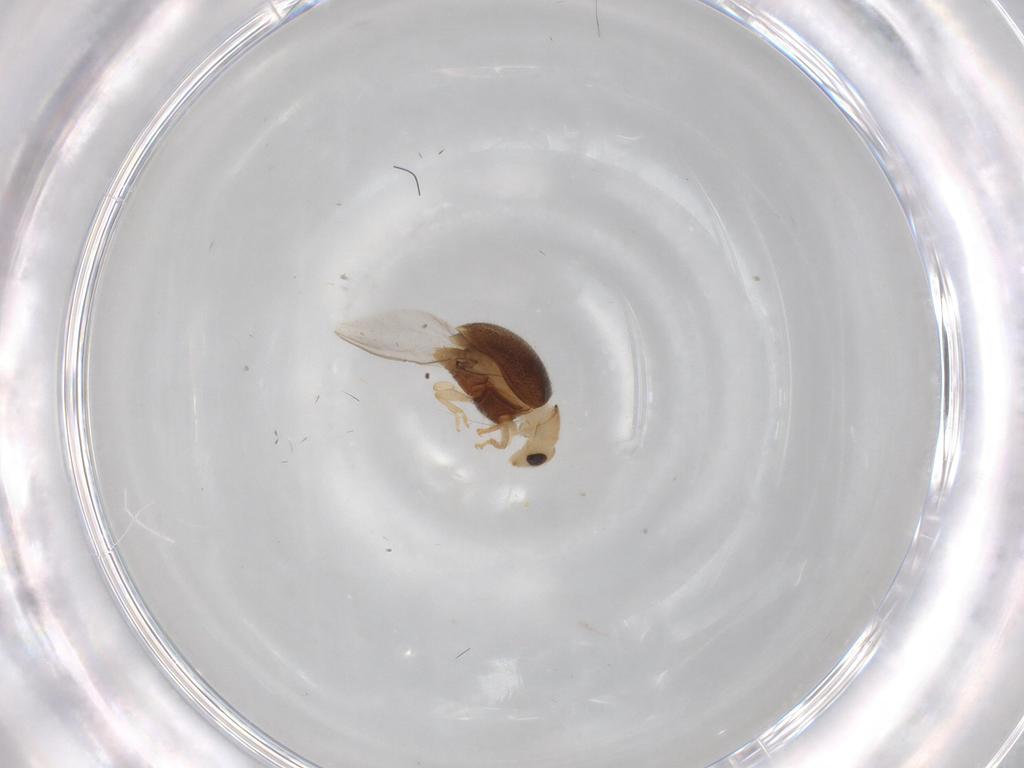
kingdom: Animalia
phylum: Arthropoda
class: Insecta
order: Coleoptera
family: Coccinellidae
